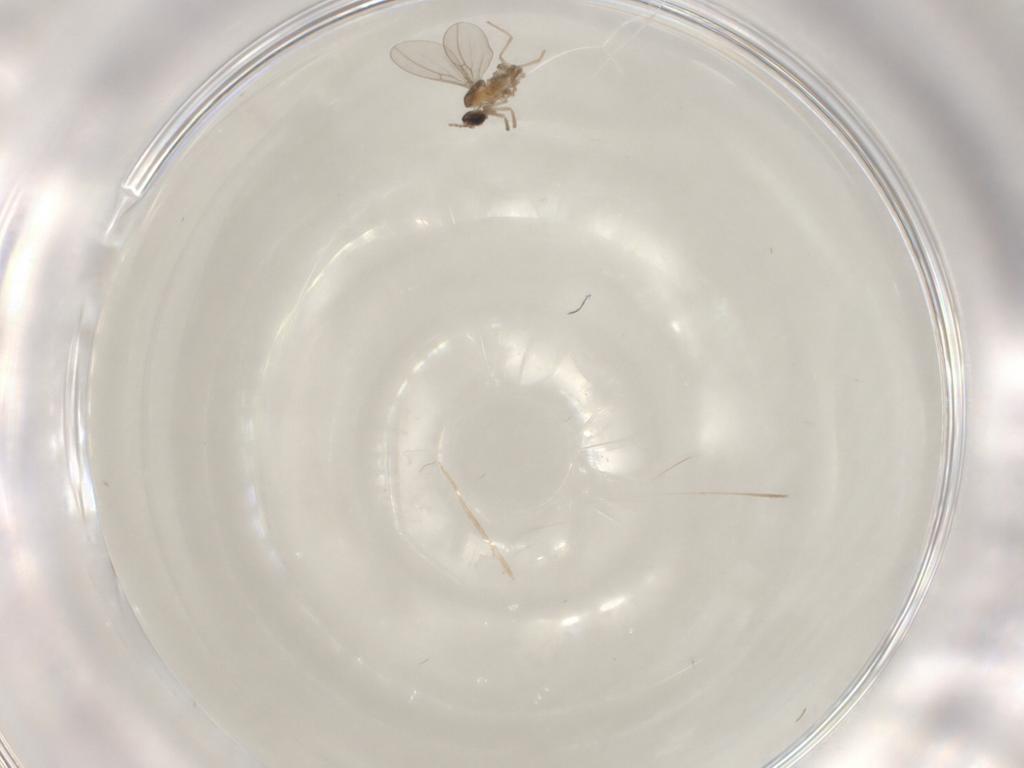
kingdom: Animalia
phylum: Arthropoda
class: Insecta
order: Diptera
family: Cecidomyiidae
